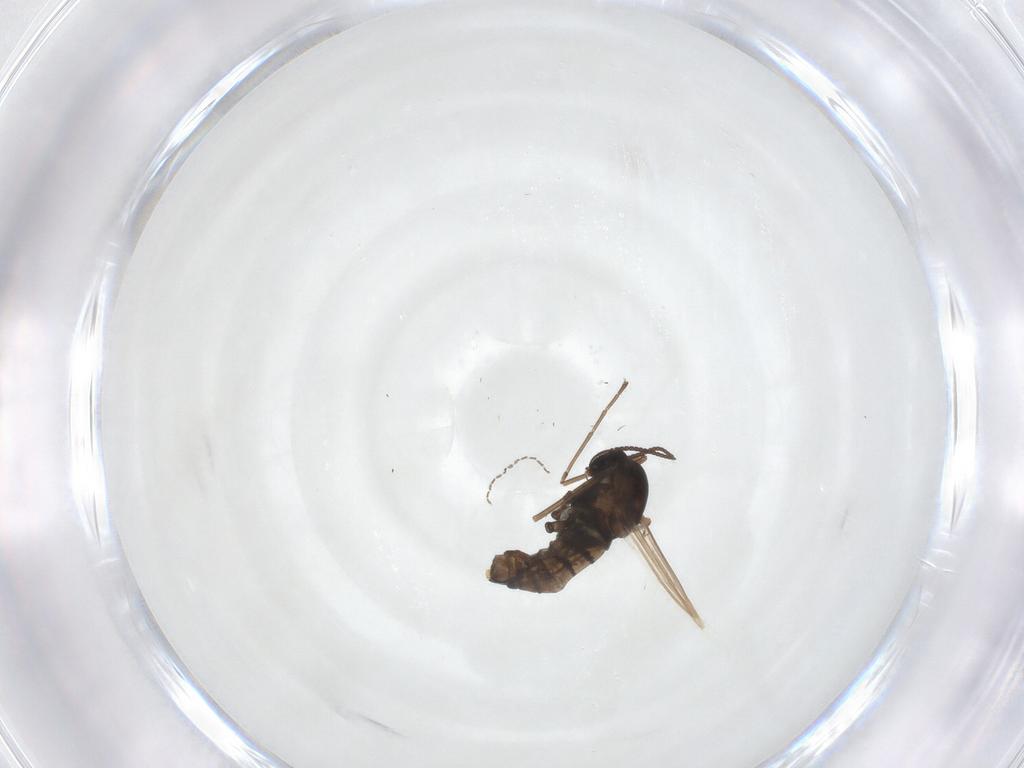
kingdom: Animalia
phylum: Arthropoda
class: Insecta
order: Diptera
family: Cecidomyiidae
